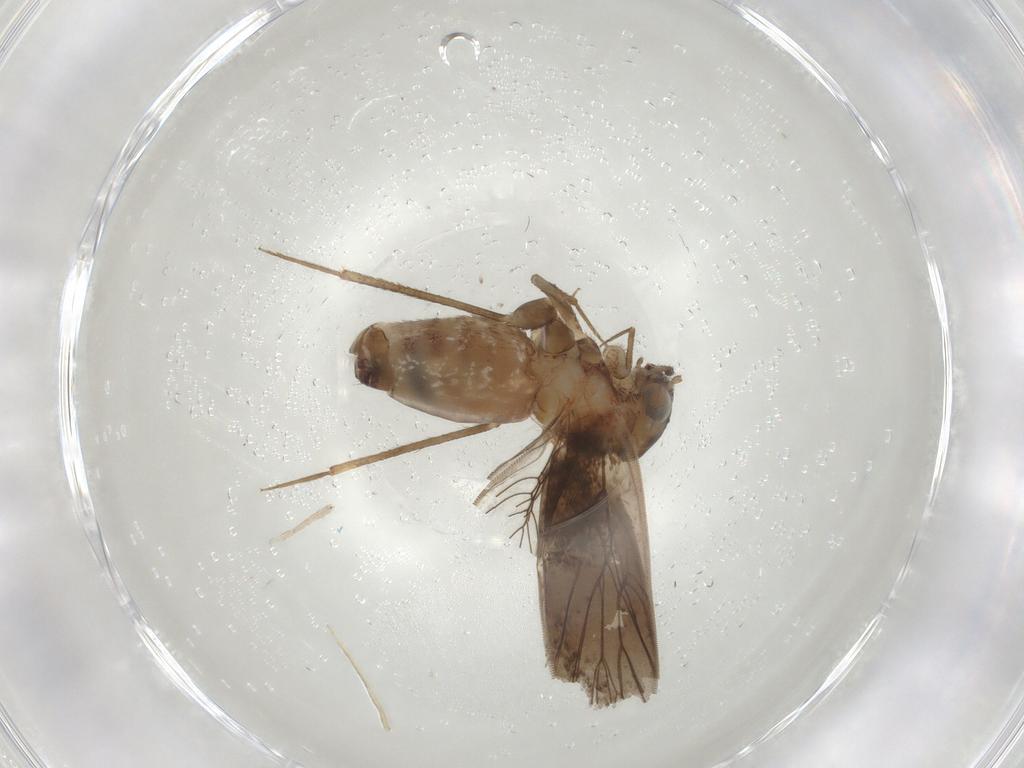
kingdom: Animalia
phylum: Arthropoda
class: Insecta
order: Psocodea
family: Lepidopsocidae
